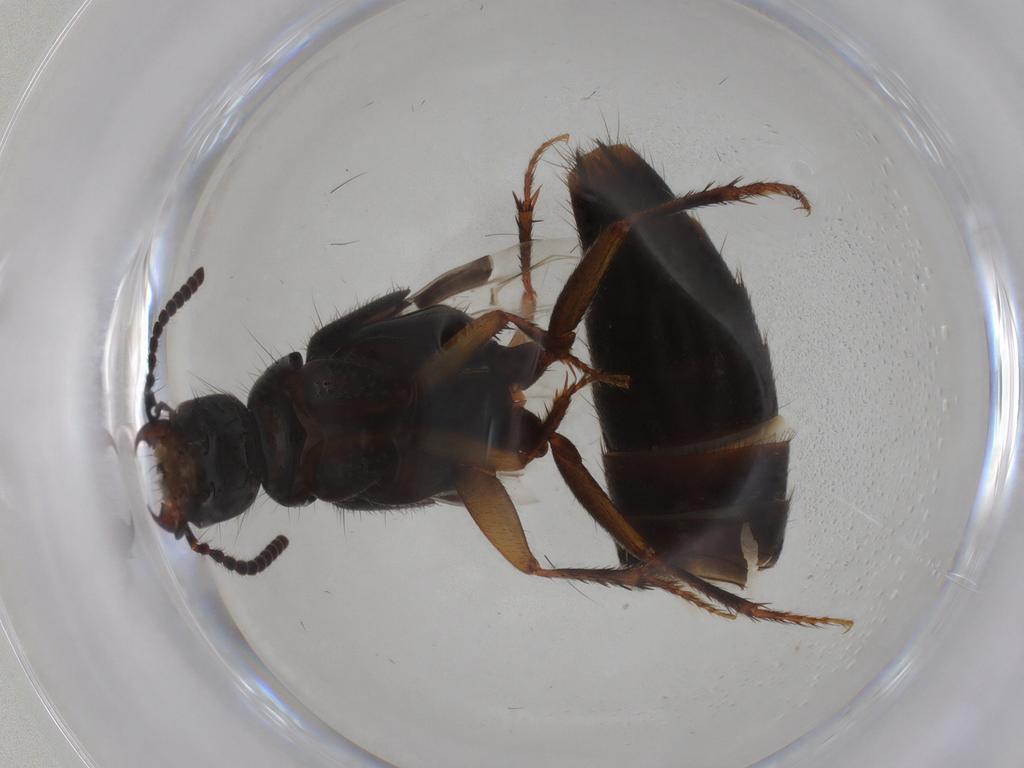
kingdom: Animalia
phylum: Arthropoda
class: Insecta
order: Coleoptera
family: Staphylinidae
